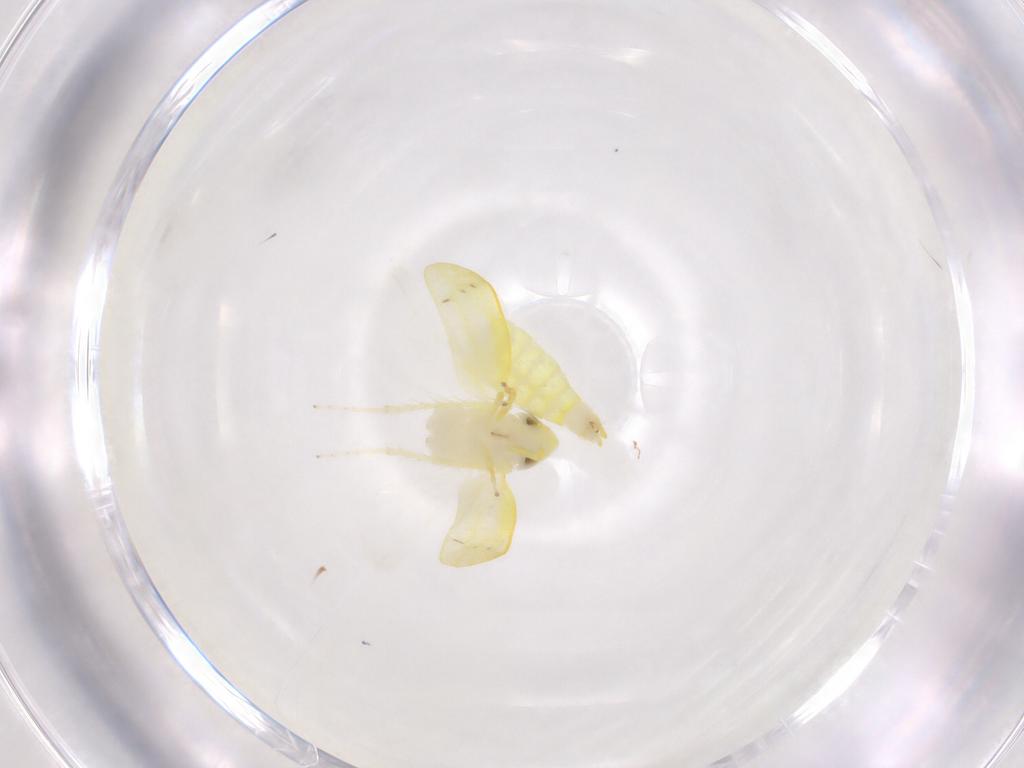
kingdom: Animalia
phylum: Arthropoda
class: Insecta
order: Hemiptera
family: Cicadellidae
